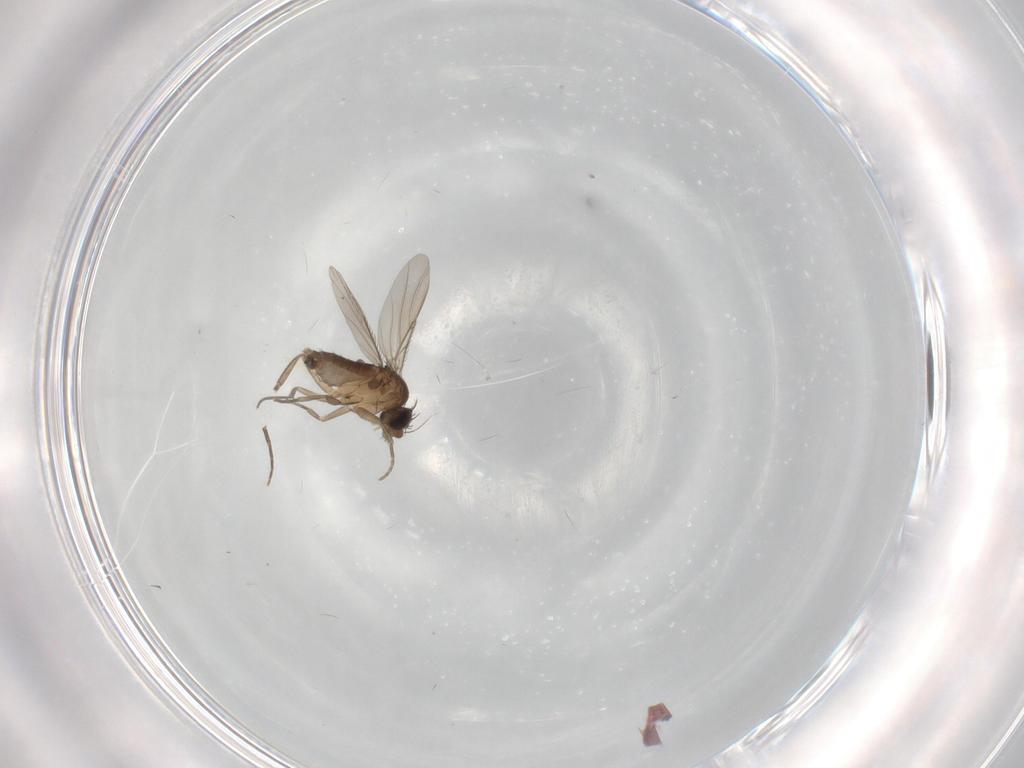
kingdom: Animalia
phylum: Arthropoda
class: Insecta
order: Diptera
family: Phoridae
